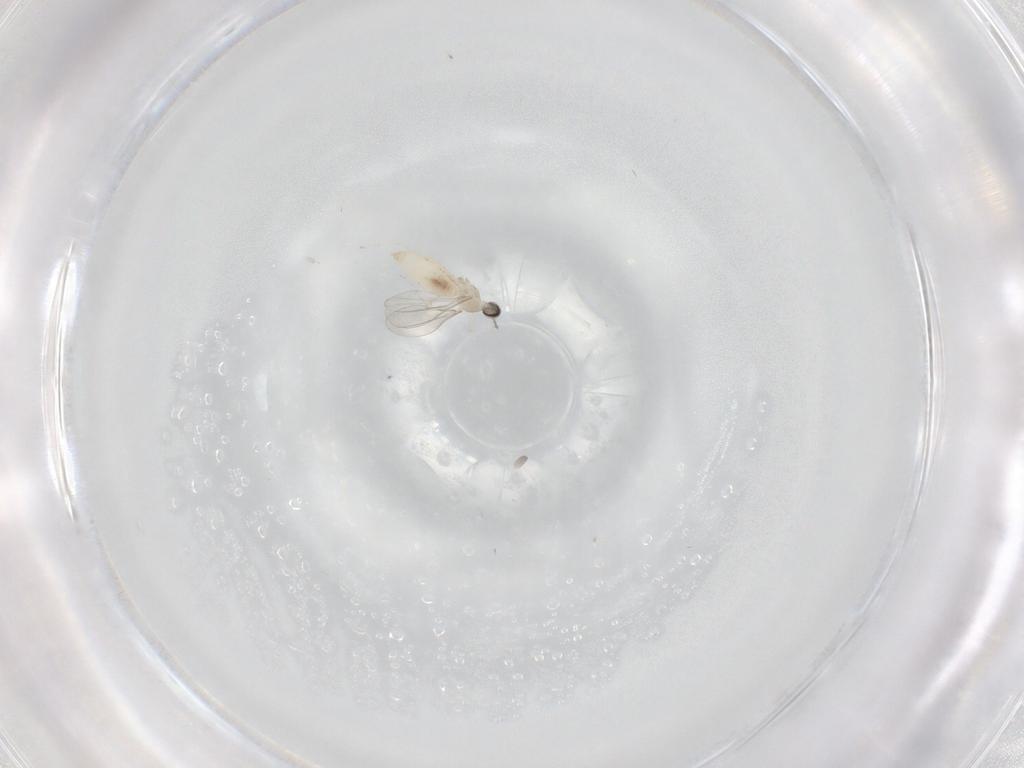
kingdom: Animalia
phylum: Arthropoda
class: Insecta
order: Diptera
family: Cecidomyiidae
